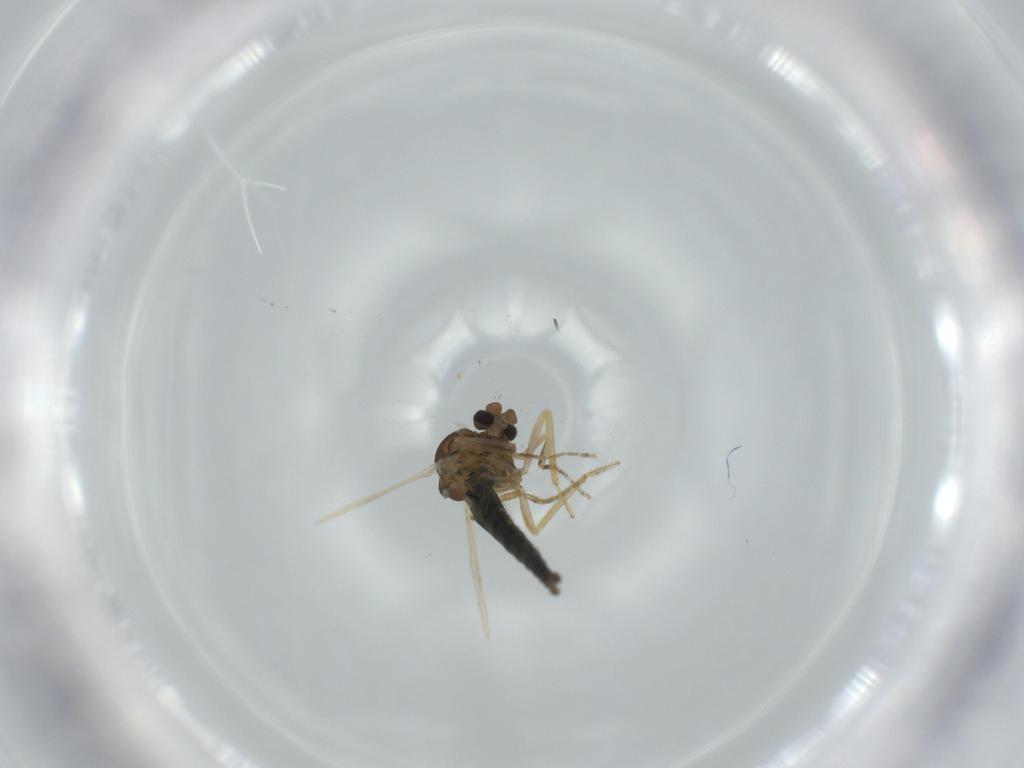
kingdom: Animalia
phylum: Arthropoda
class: Insecta
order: Diptera
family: Ceratopogonidae
